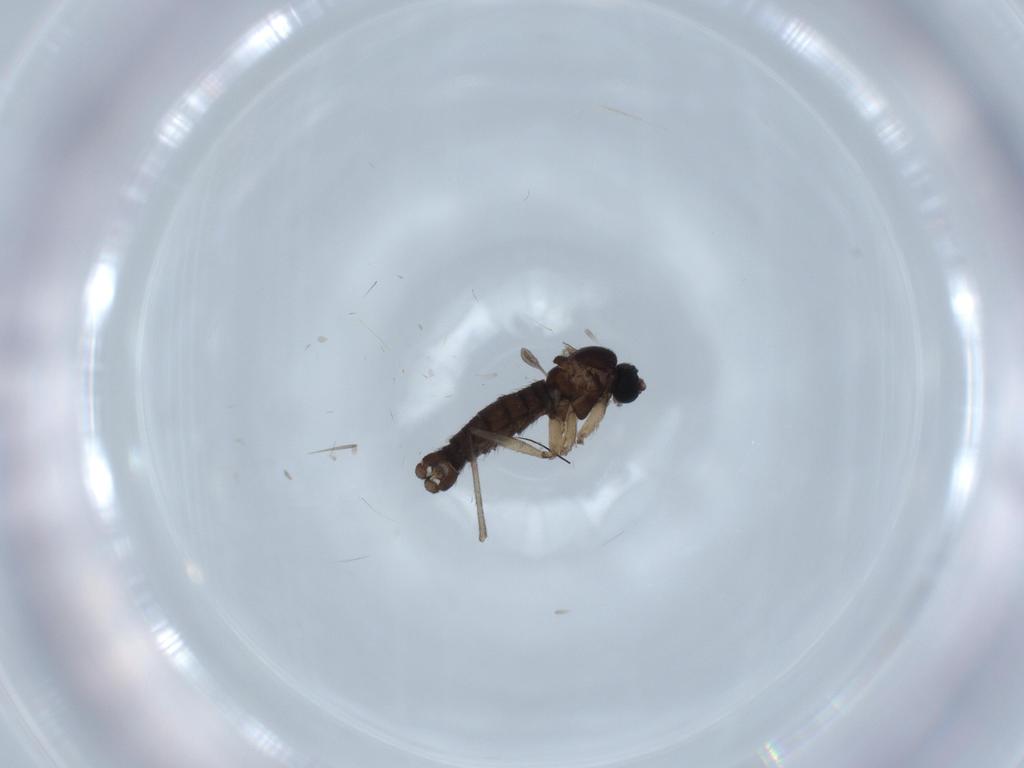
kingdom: Animalia
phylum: Arthropoda
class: Insecta
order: Diptera
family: Sciaridae
